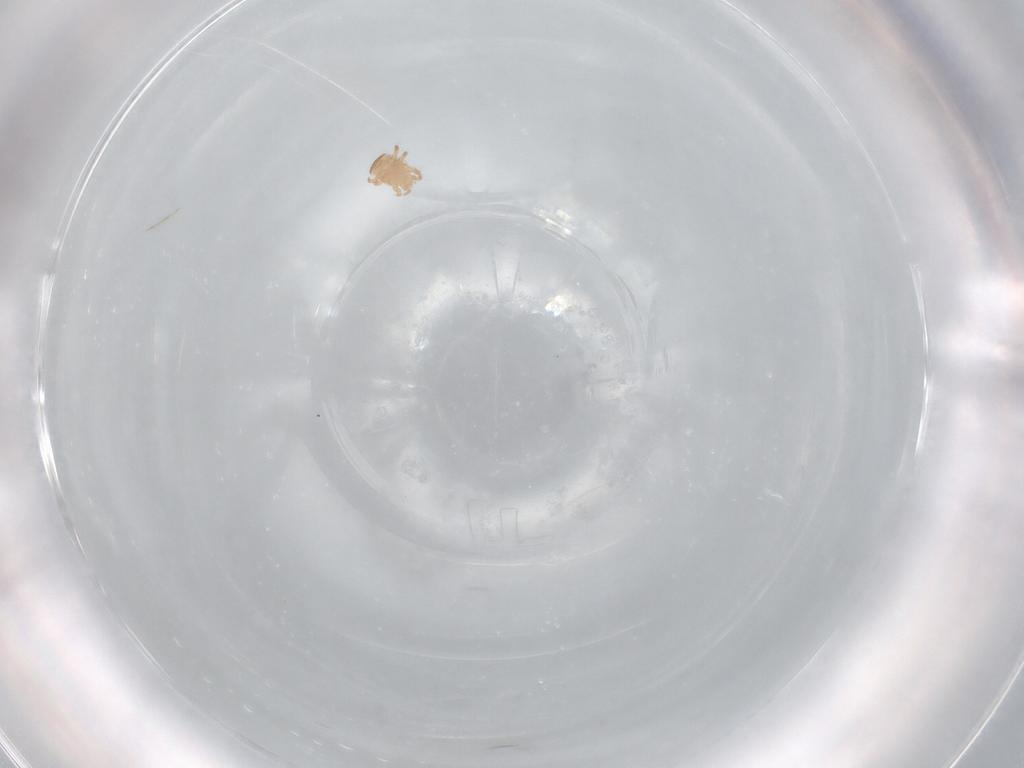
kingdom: Animalia
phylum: Arthropoda
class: Arachnida
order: Mesostigmata
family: Digamasellidae
